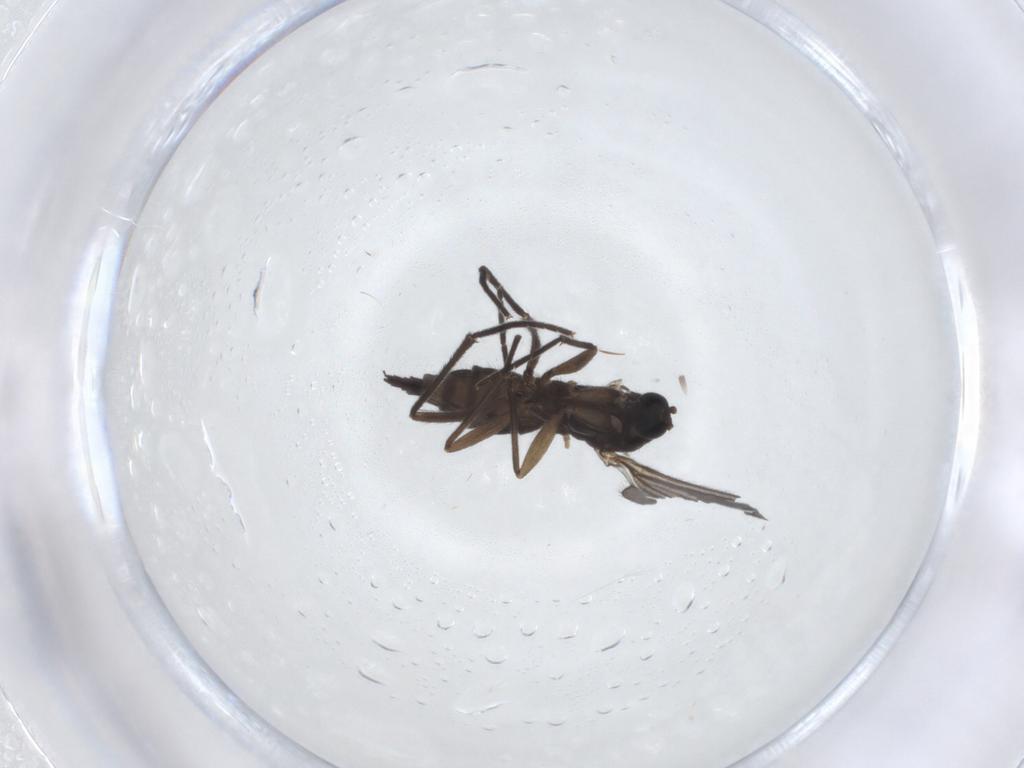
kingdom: Animalia
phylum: Arthropoda
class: Insecta
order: Diptera
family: Sciaridae
